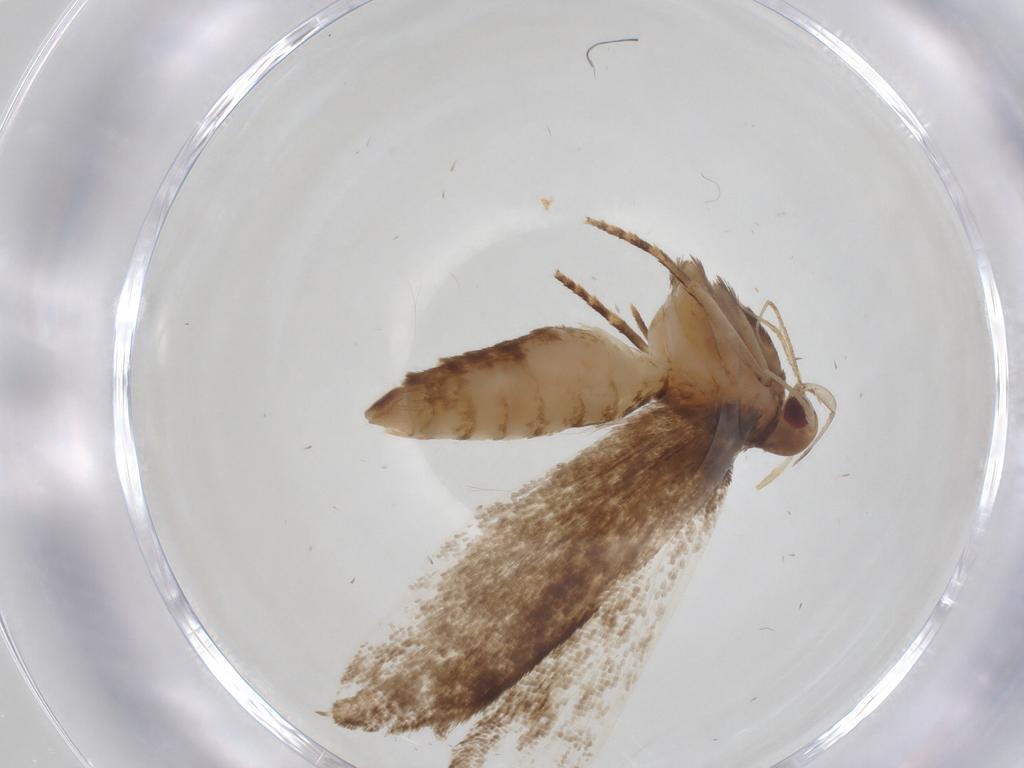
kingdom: Animalia
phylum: Arthropoda
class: Insecta
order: Lepidoptera
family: Gelechiidae
